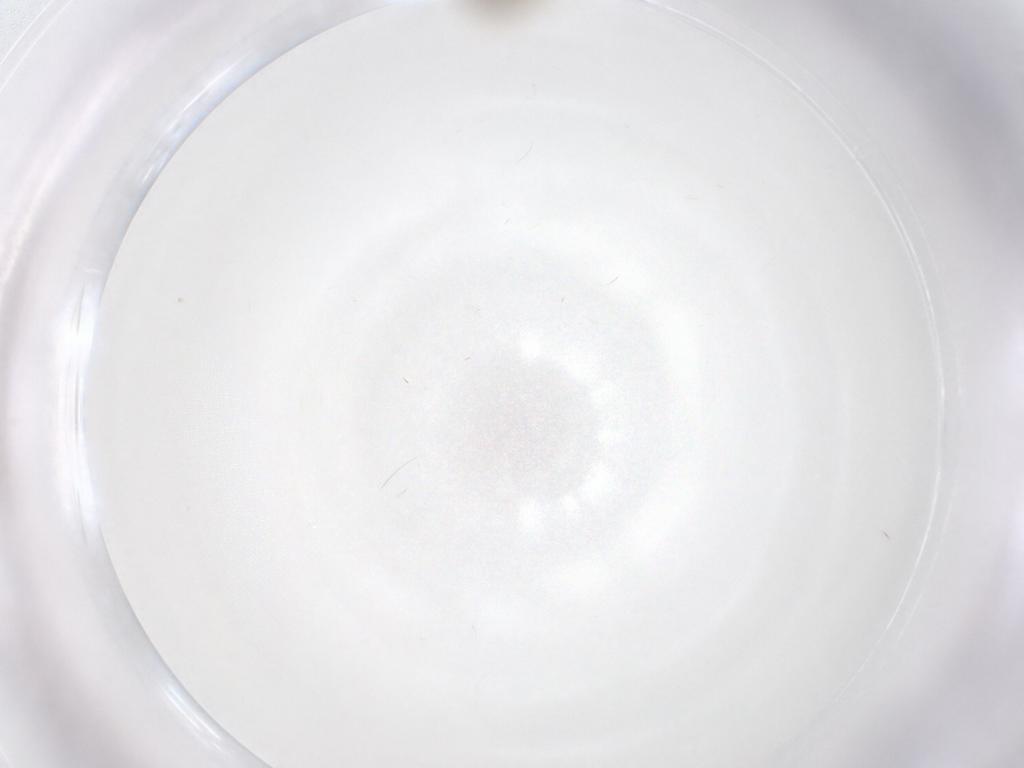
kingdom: Animalia
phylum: Arthropoda
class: Insecta
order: Diptera
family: Chironomidae
